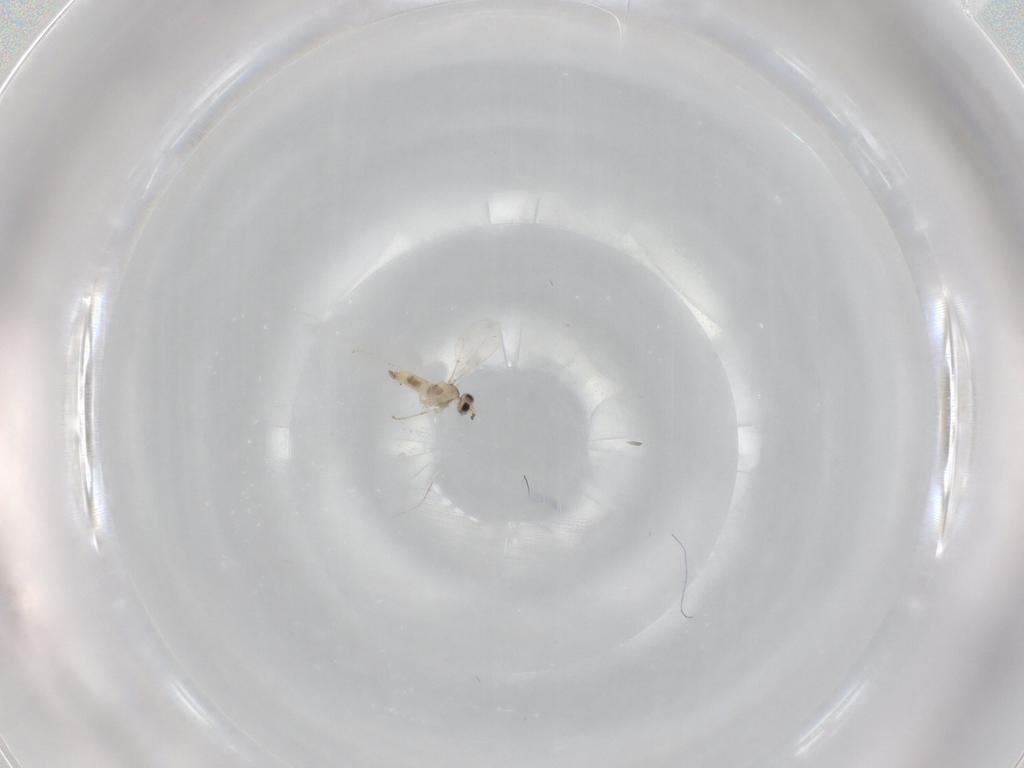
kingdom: Animalia
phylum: Arthropoda
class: Insecta
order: Diptera
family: Cecidomyiidae
